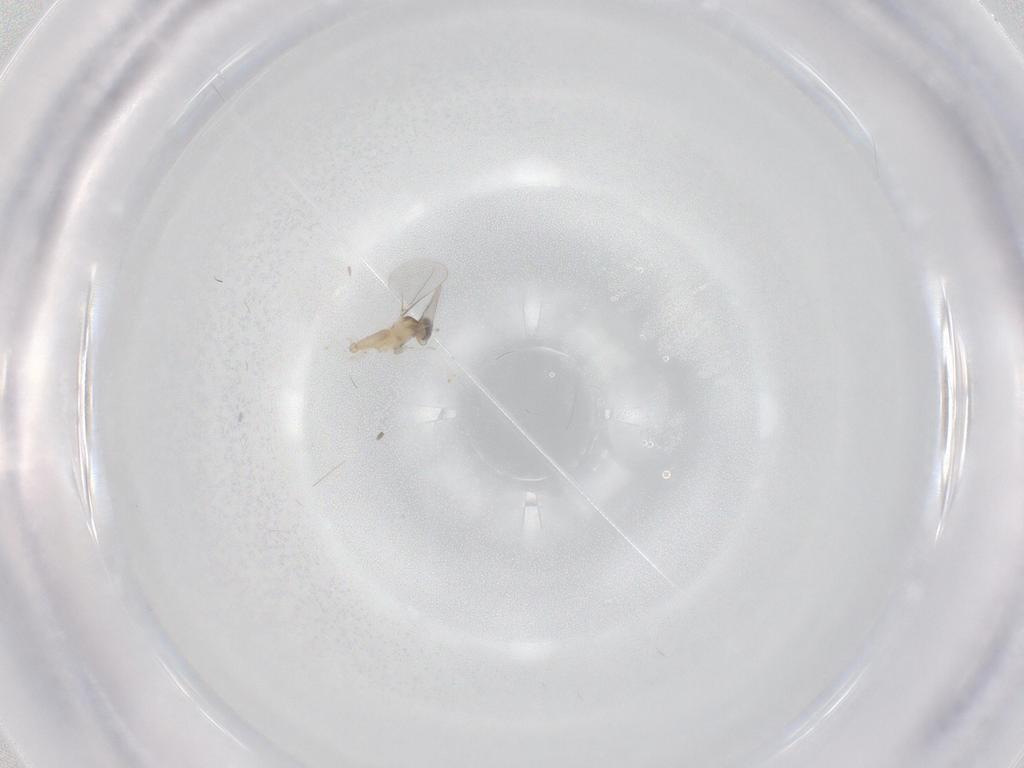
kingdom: Animalia
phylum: Arthropoda
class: Insecta
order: Diptera
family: Cecidomyiidae
